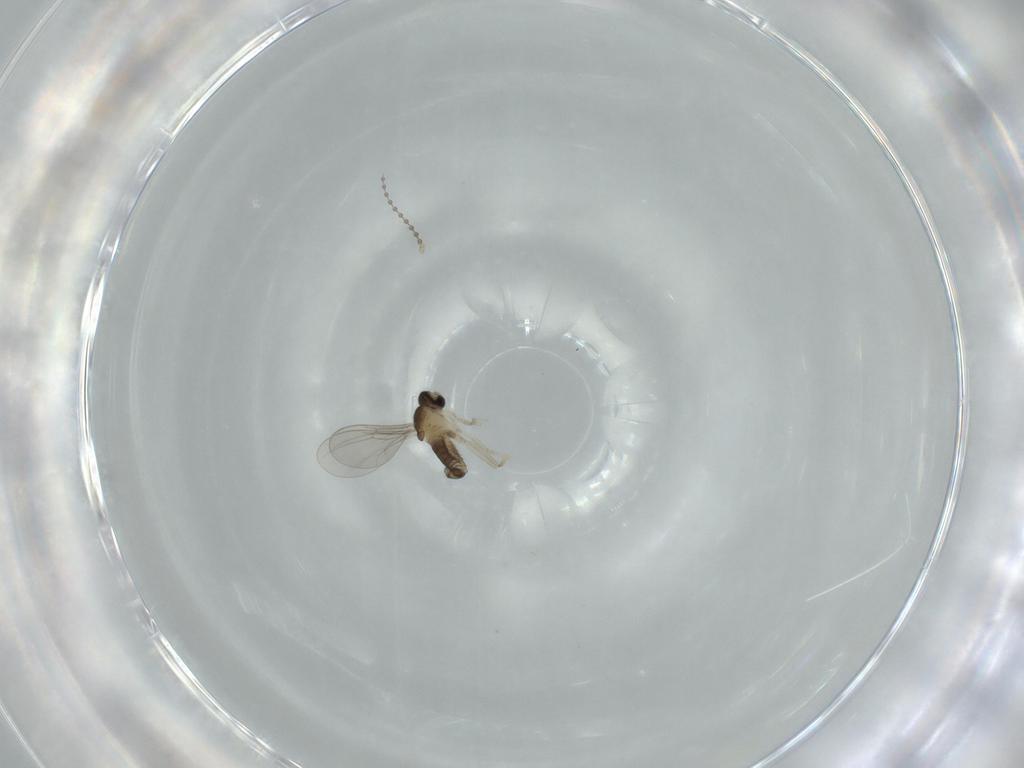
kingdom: Animalia
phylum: Arthropoda
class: Insecta
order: Diptera
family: Cecidomyiidae
